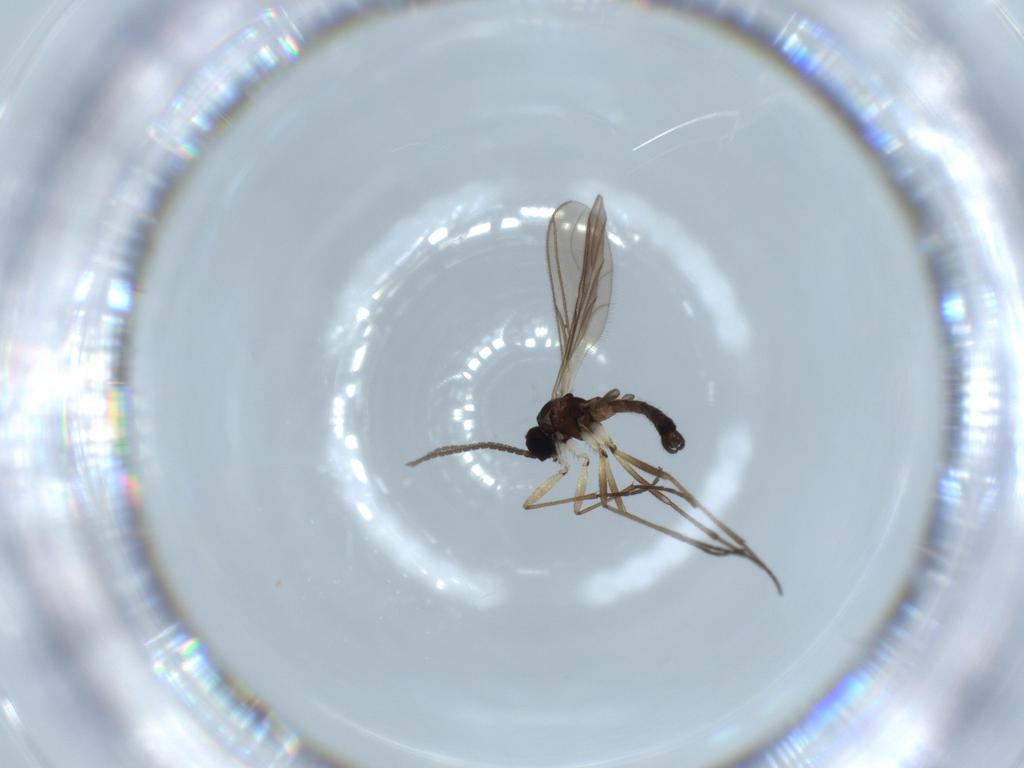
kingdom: Animalia
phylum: Arthropoda
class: Insecta
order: Diptera
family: Sciaridae
